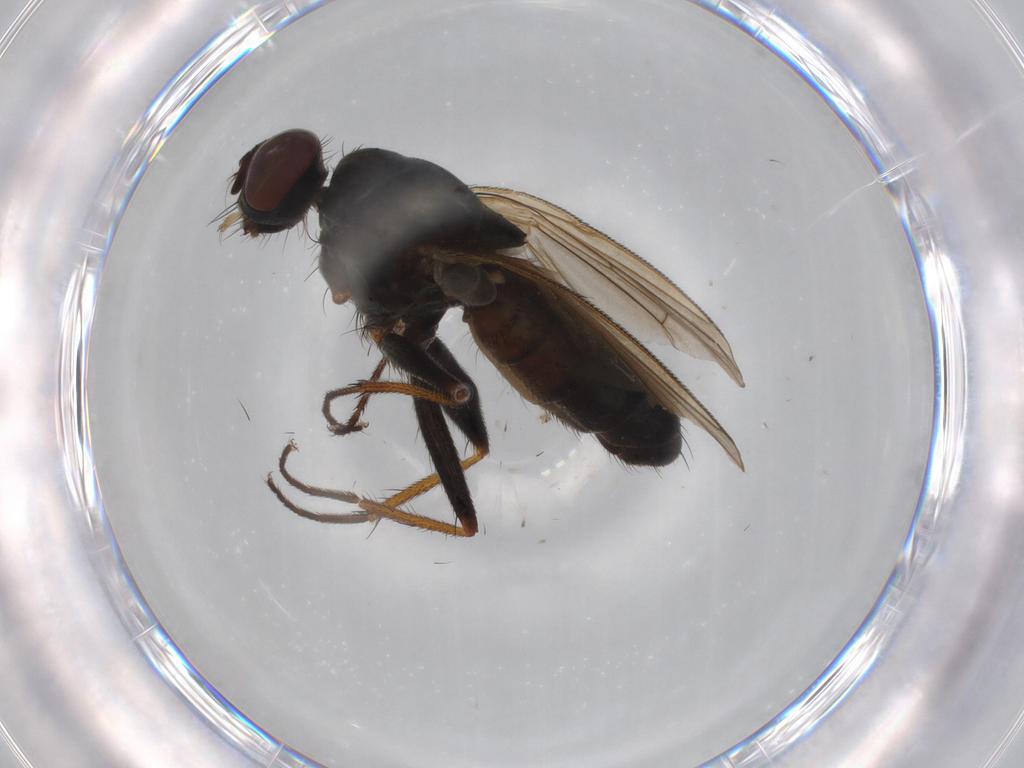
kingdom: Animalia
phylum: Arthropoda
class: Insecta
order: Diptera
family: Muscidae
